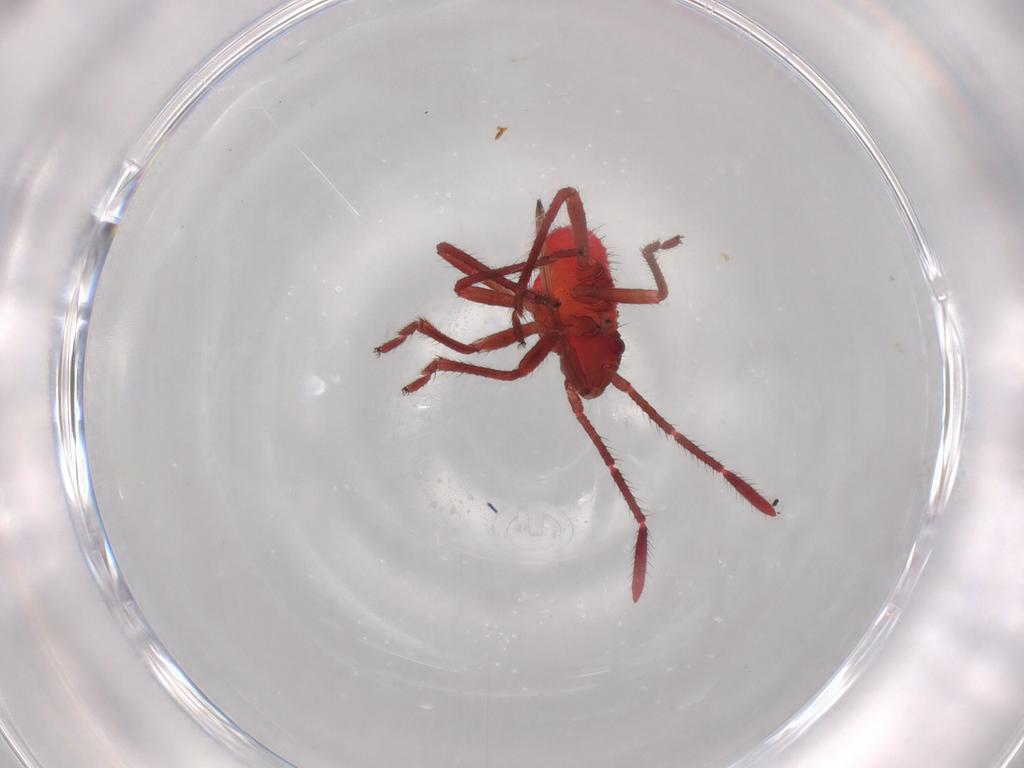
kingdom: Animalia
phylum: Arthropoda
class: Insecta
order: Hemiptera
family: Rhopalidae
